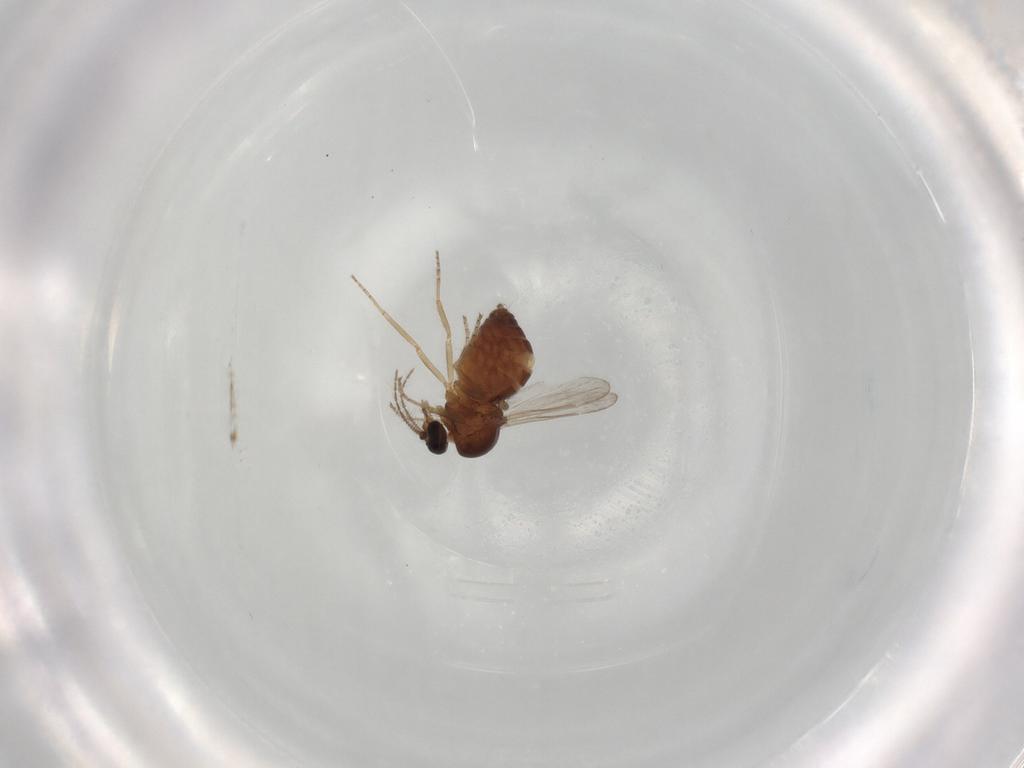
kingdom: Animalia
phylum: Arthropoda
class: Insecta
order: Diptera
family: Ceratopogonidae
